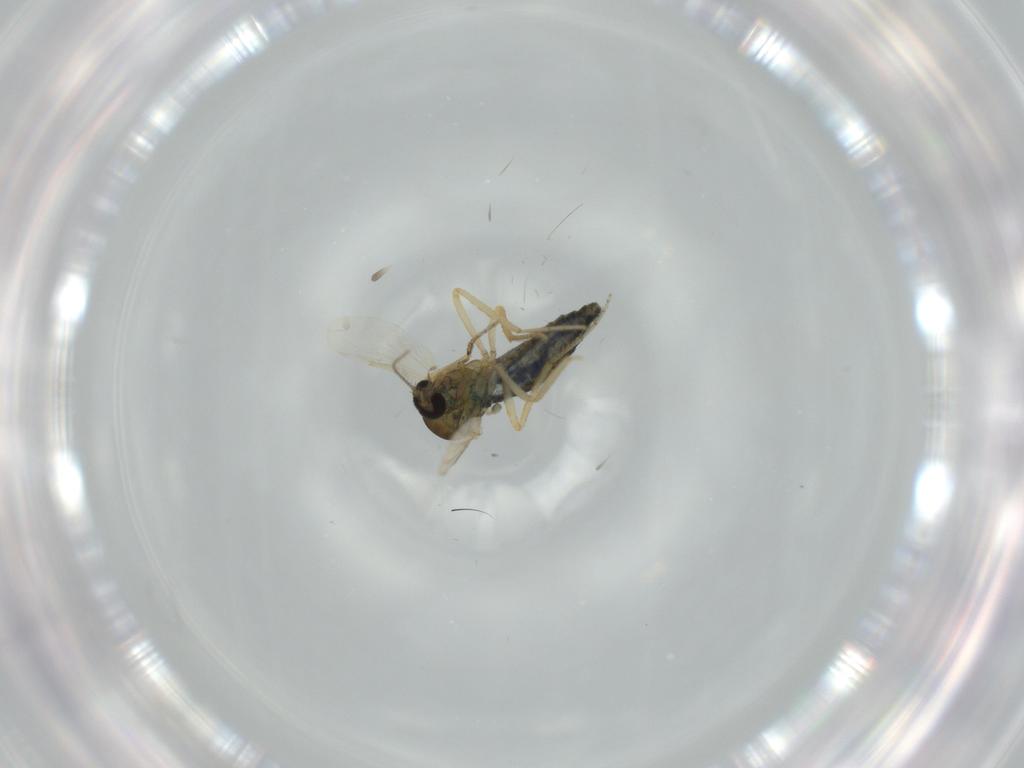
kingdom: Animalia
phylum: Arthropoda
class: Insecta
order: Diptera
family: Ceratopogonidae
